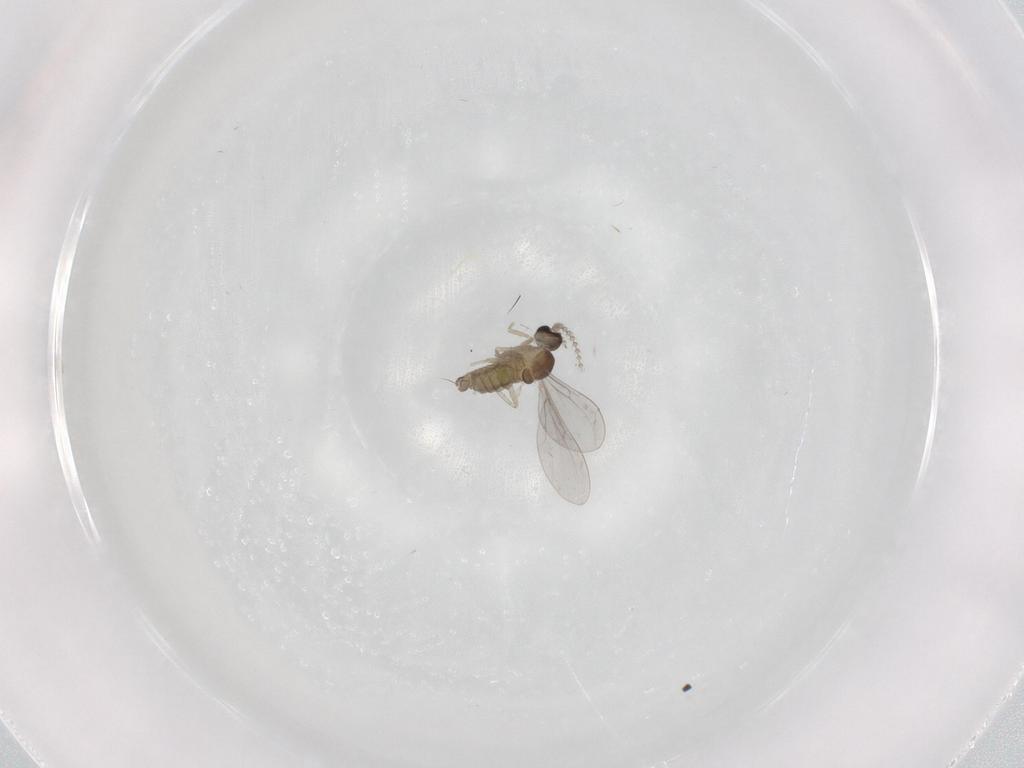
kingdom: Animalia
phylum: Arthropoda
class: Insecta
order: Diptera
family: Cecidomyiidae
